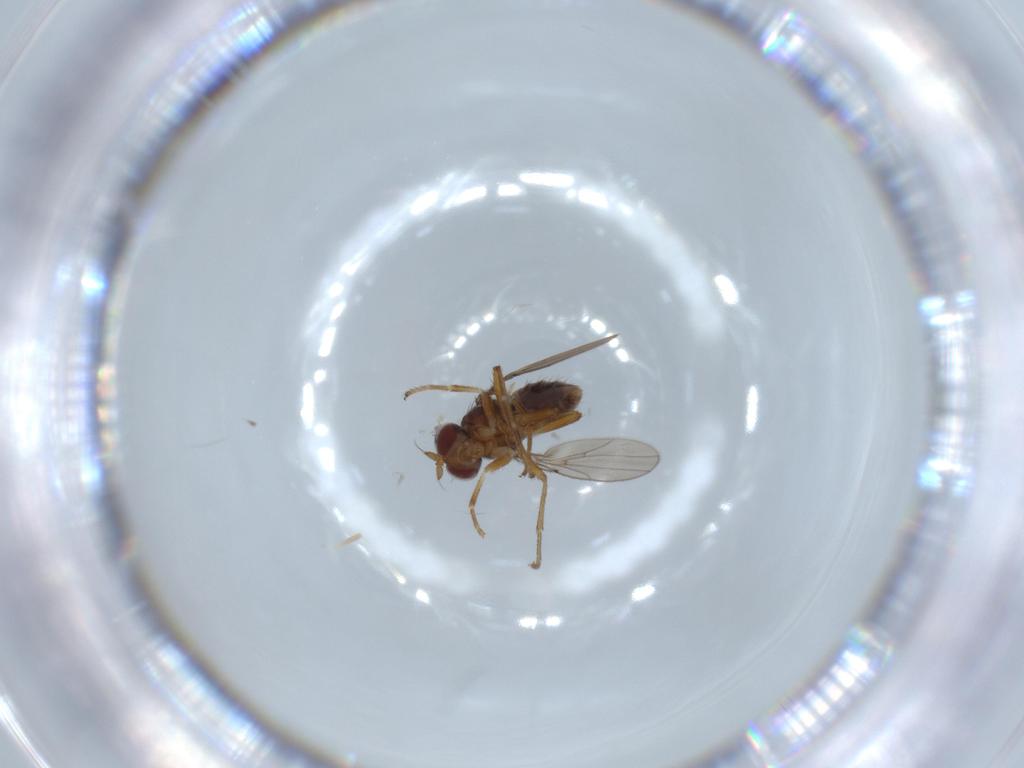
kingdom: Animalia
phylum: Arthropoda
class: Insecta
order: Diptera
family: Ephydridae
